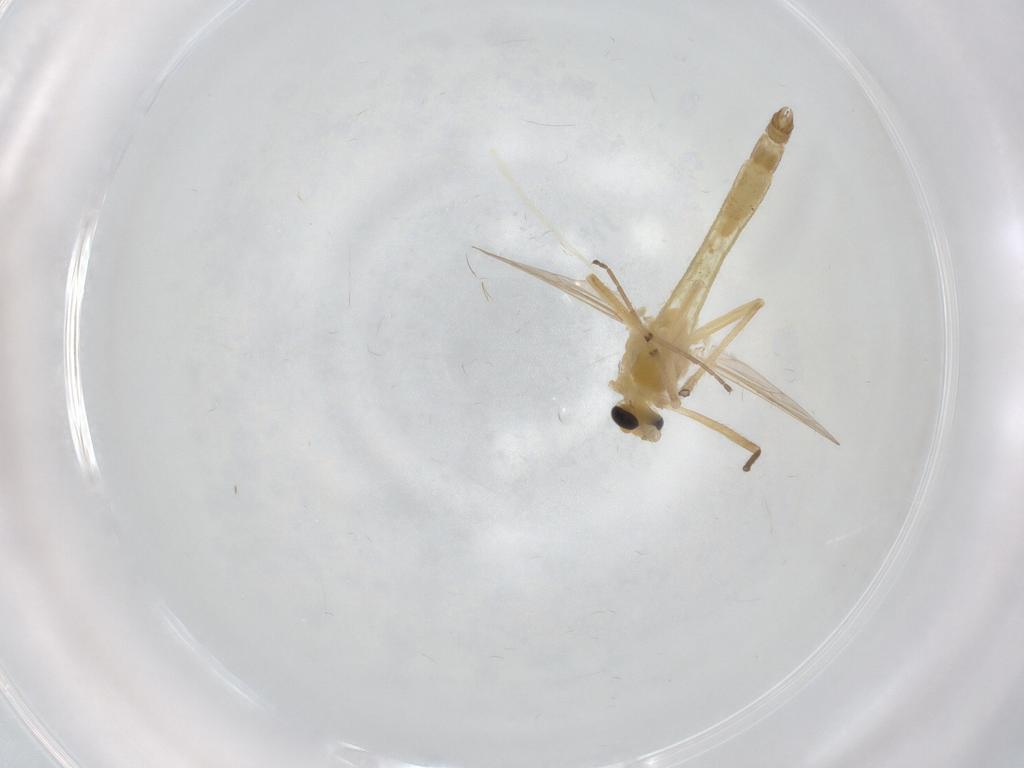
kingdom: Animalia
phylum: Arthropoda
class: Insecta
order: Diptera
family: Chironomidae
